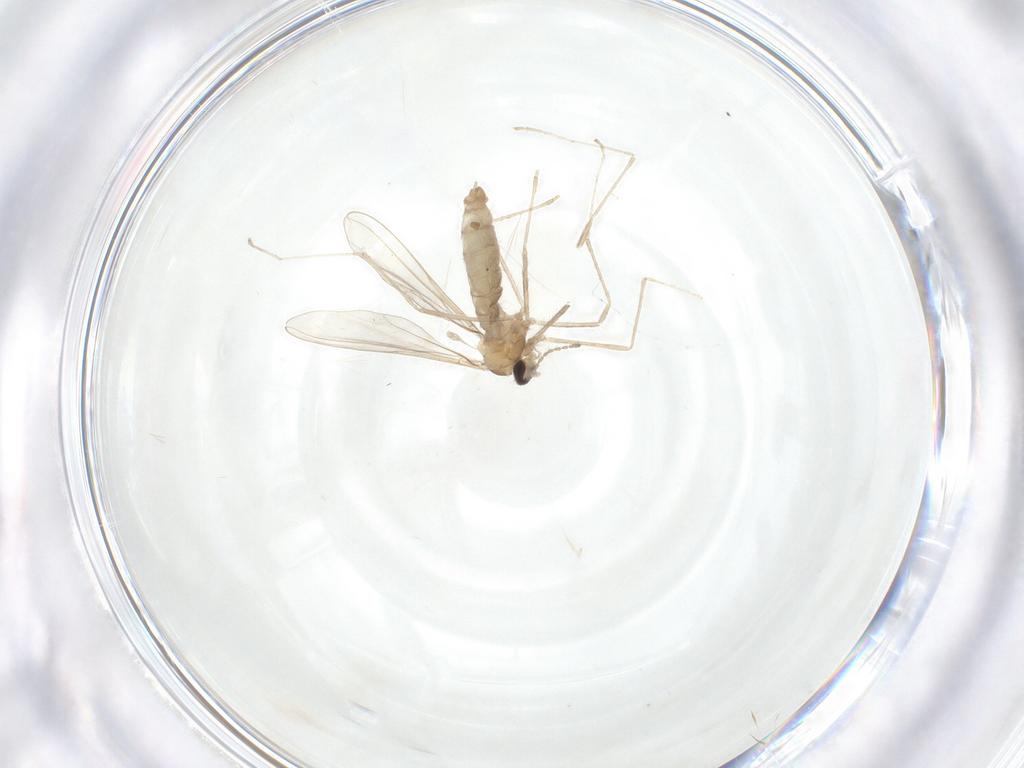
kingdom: Animalia
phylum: Arthropoda
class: Insecta
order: Diptera
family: Cecidomyiidae
